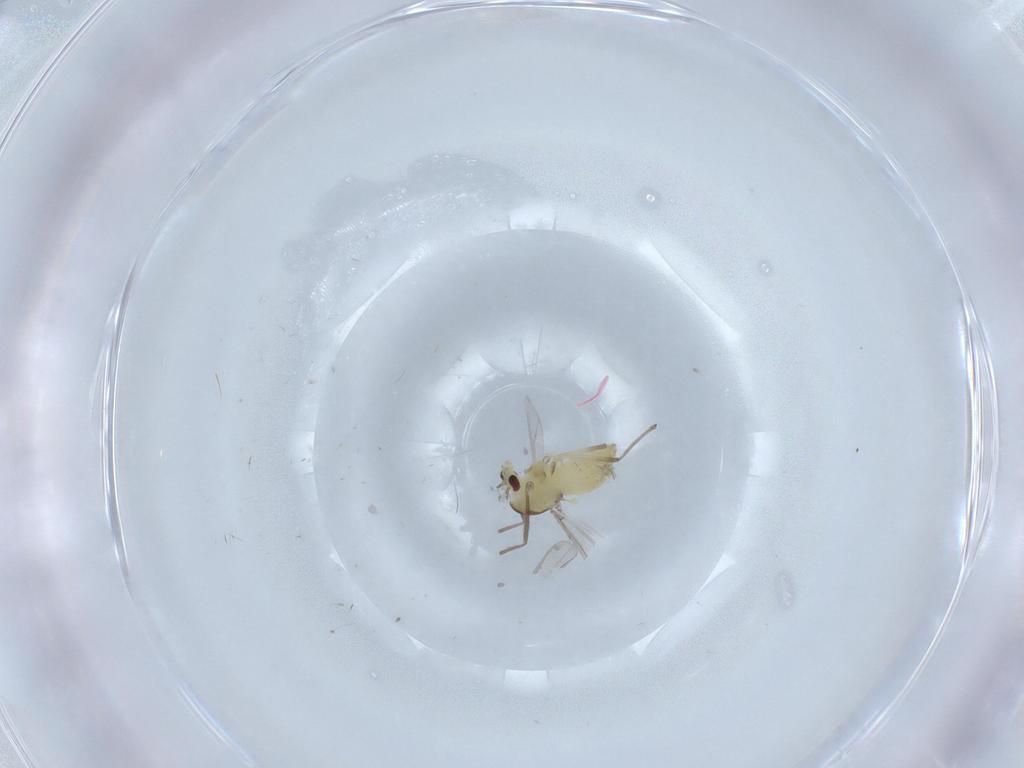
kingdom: Animalia
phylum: Arthropoda
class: Insecta
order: Diptera
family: Chironomidae
